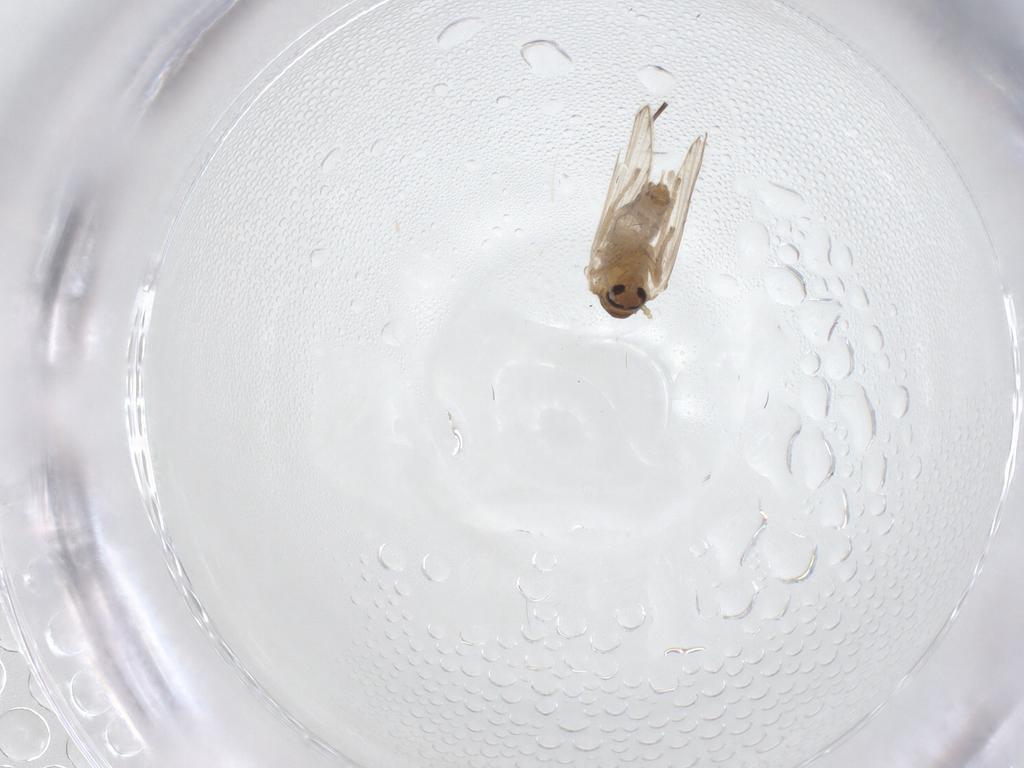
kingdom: Animalia
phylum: Arthropoda
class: Insecta
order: Diptera
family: Psychodidae
